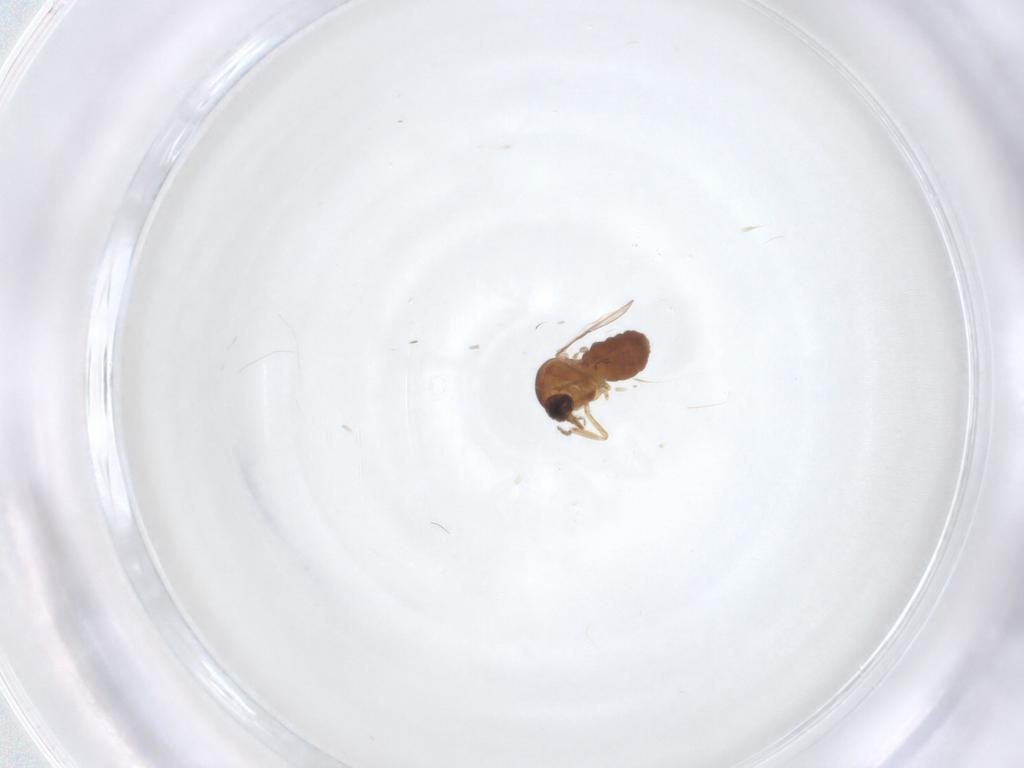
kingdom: Animalia
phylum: Arthropoda
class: Insecta
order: Diptera
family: Ceratopogonidae
